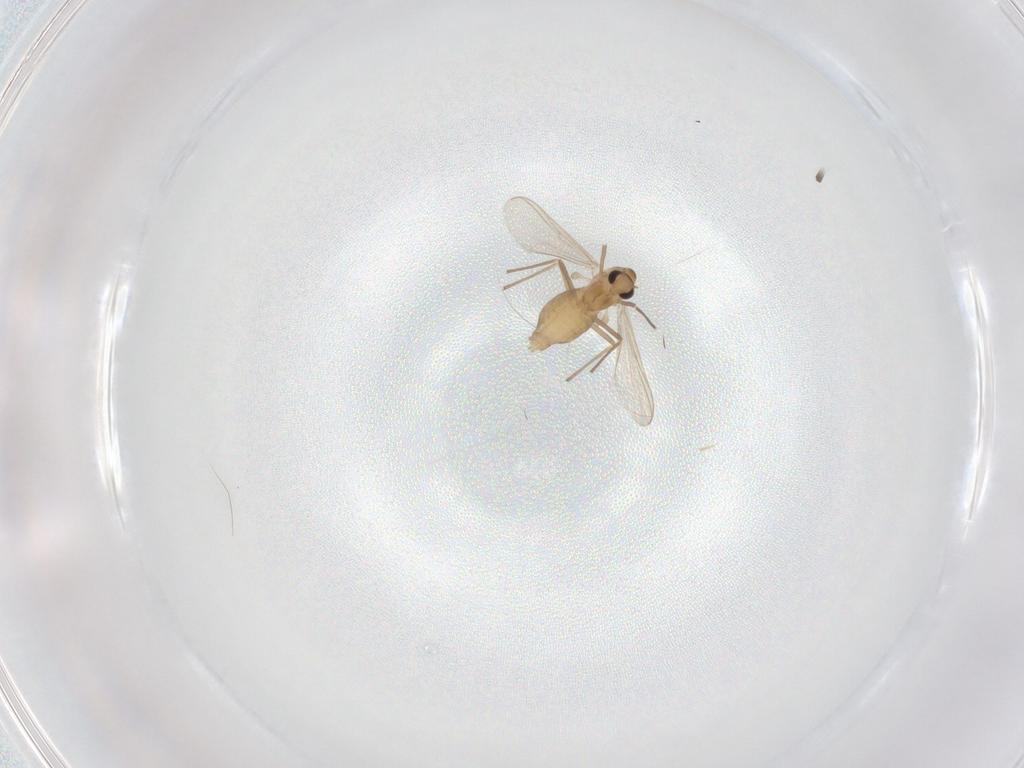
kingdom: Animalia
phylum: Arthropoda
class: Insecta
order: Diptera
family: Chironomidae
